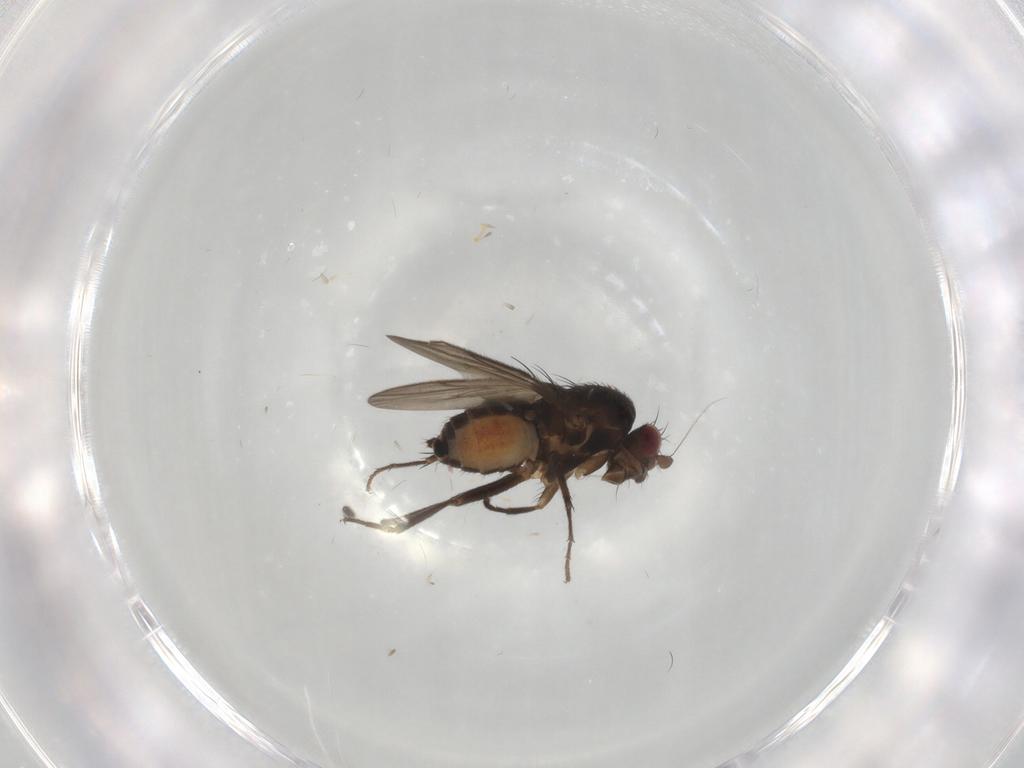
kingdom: Animalia
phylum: Arthropoda
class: Insecta
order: Diptera
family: Sphaeroceridae
